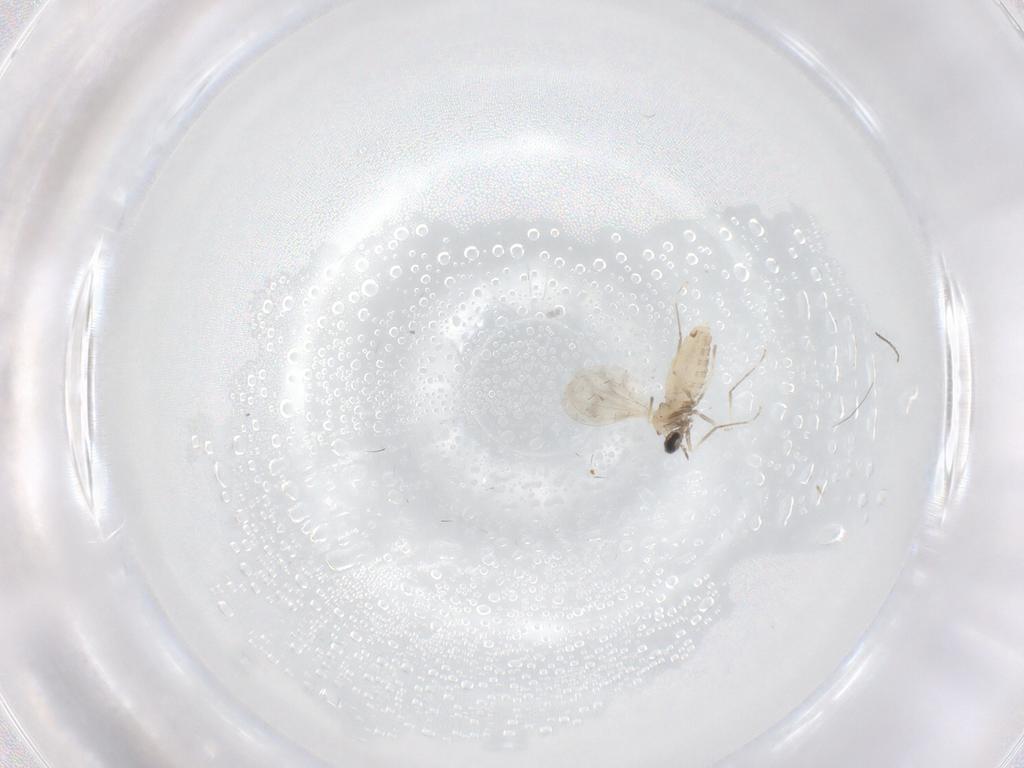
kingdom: Animalia
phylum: Arthropoda
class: Insecta
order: Diptera
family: Cecidomyiidae
